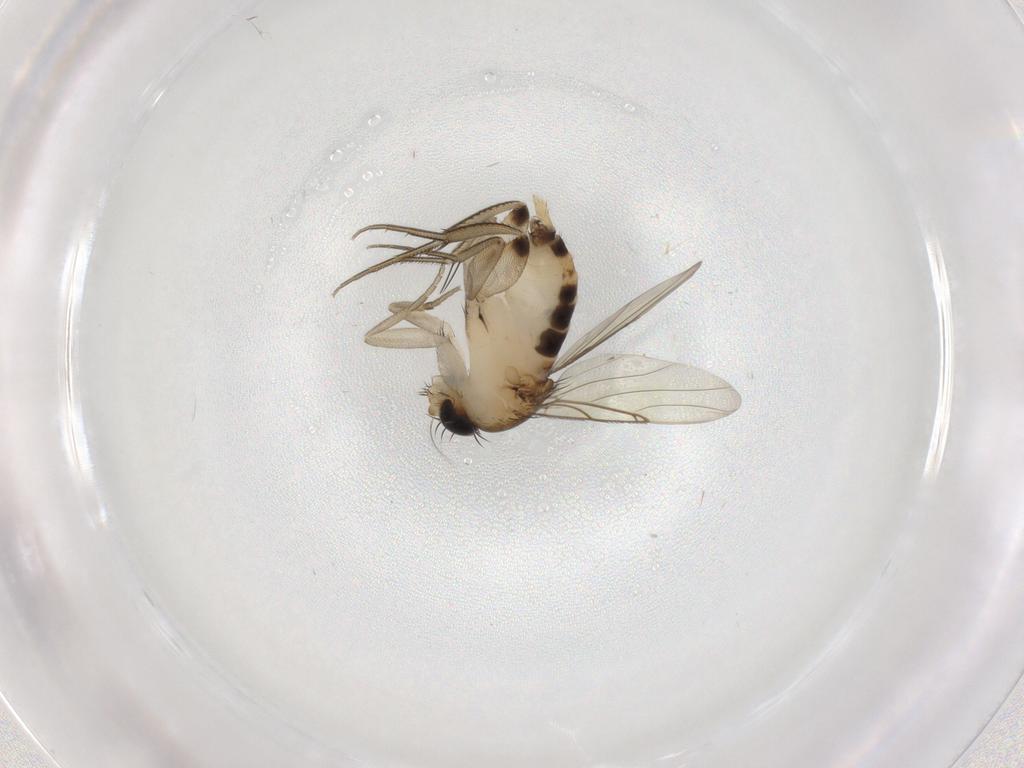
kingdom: Animalia
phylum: Arthropoda
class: Insecta
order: Diptera
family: Phoridae
